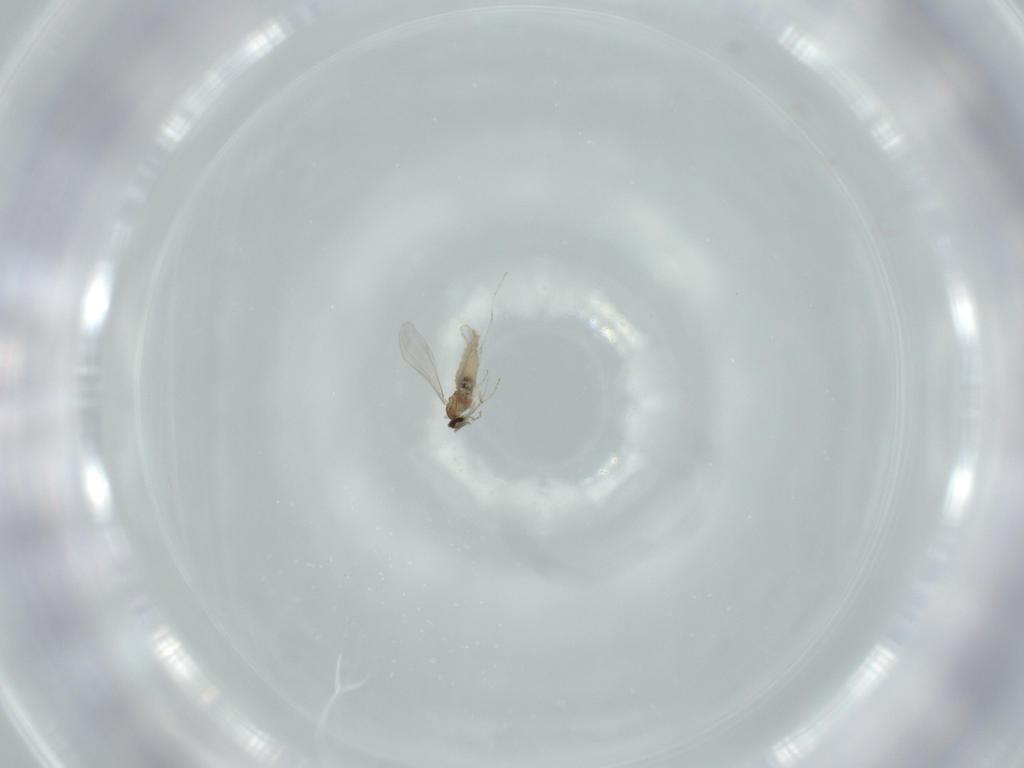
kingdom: Animalia
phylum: Arthropoda
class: Insecta
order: Diptera
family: Cecidomyiidae
